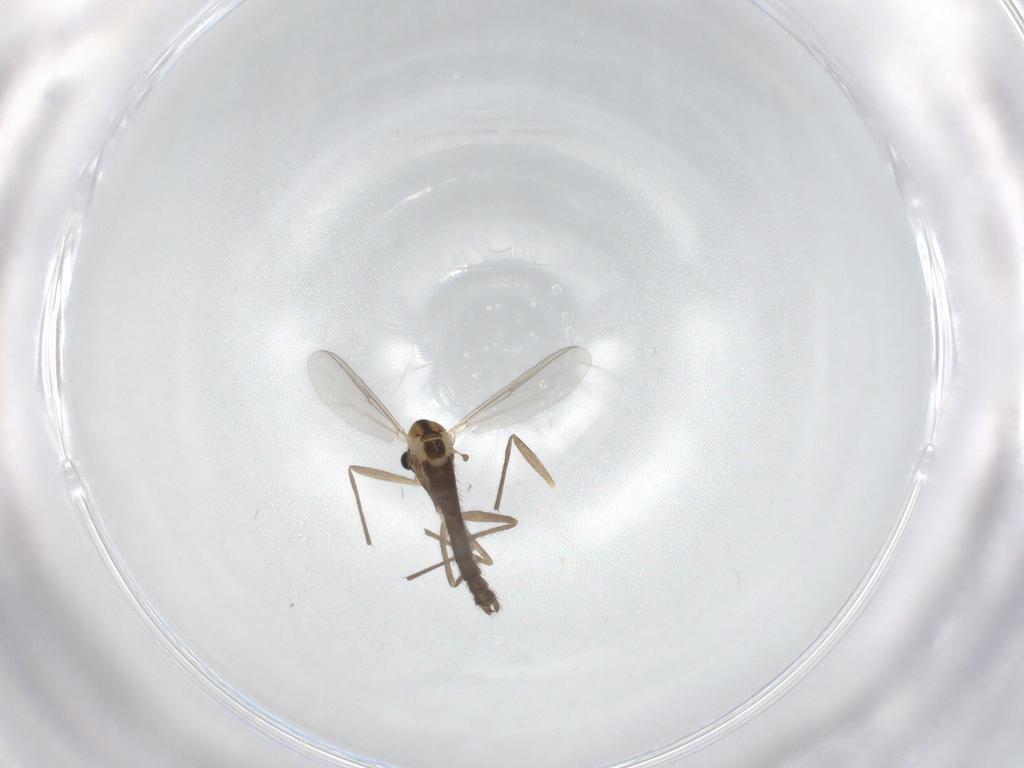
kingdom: Animalia
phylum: Arthropoda
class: Insecta
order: Diptera
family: Chironomidae
